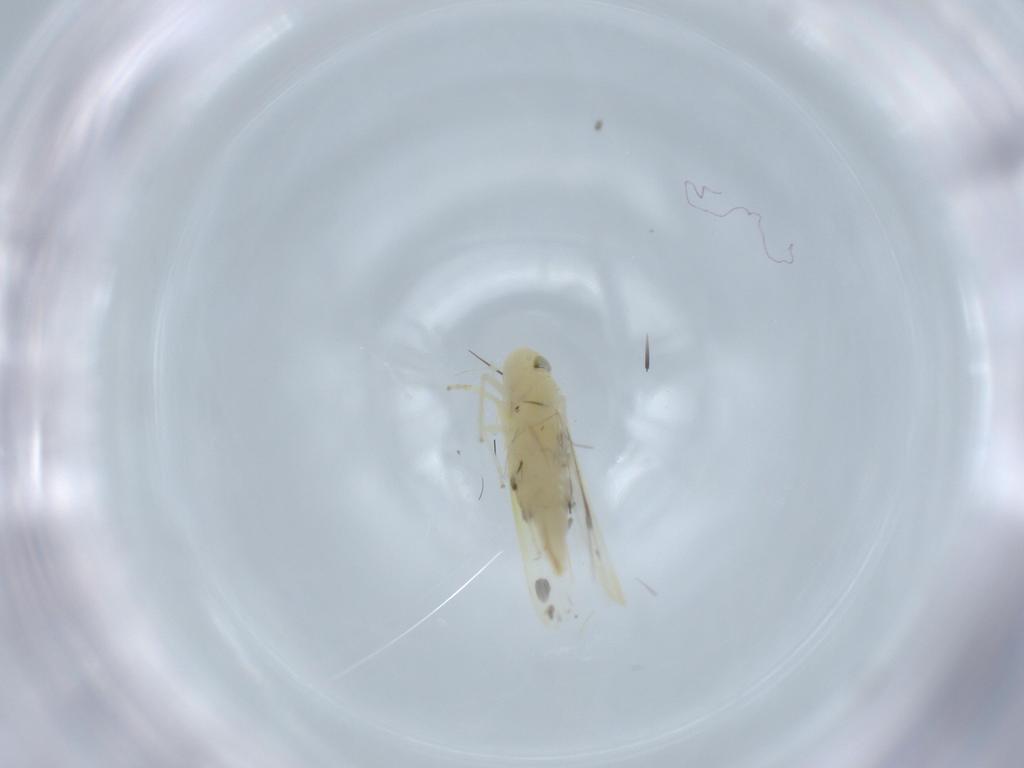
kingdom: Animalia
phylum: Arthropoda
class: Insecta
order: Hemiptera
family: Cicadellidae
